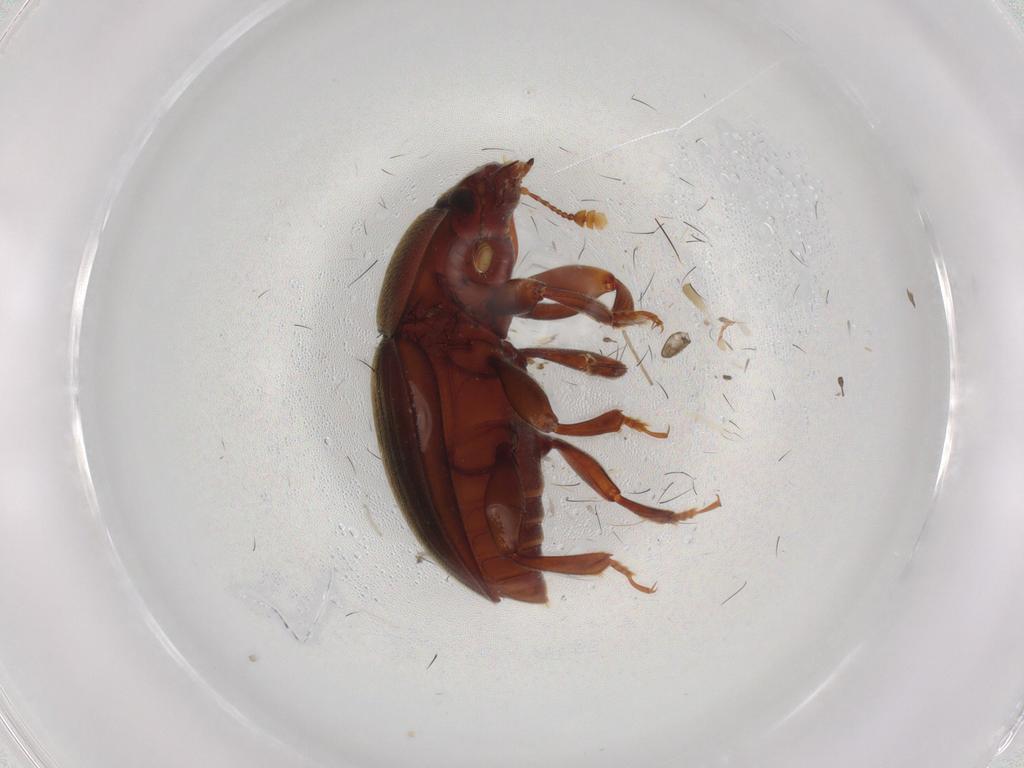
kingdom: Animalia
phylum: Arthropoda
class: Insecta
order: Coleoptera
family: Nitidulidae
